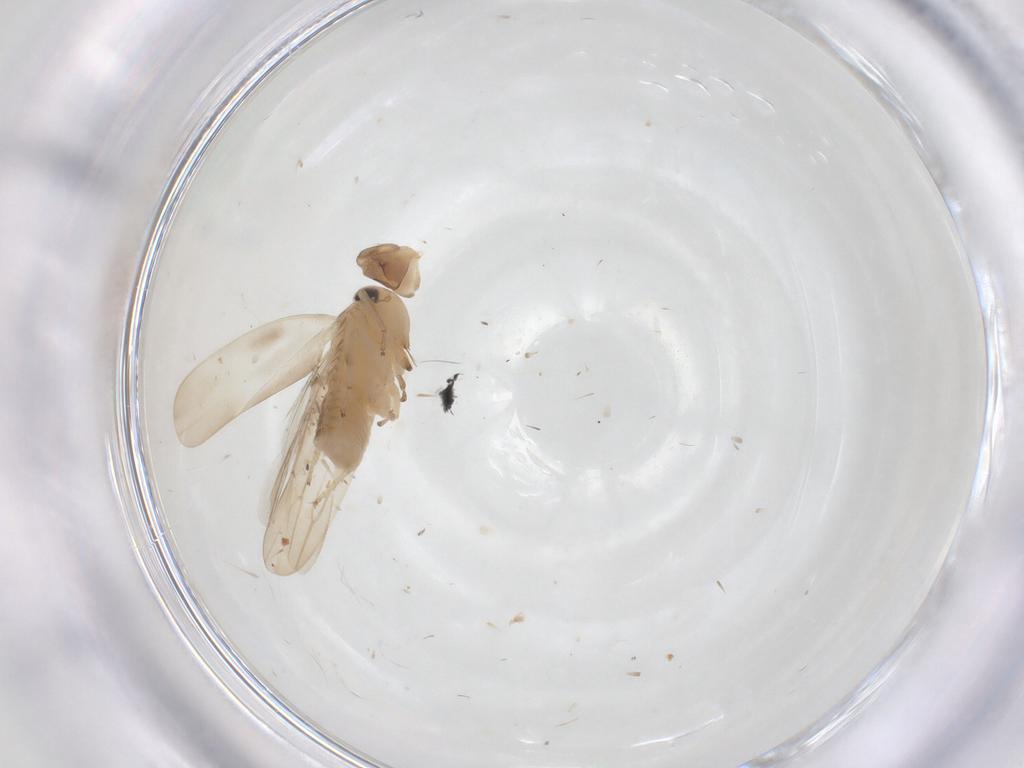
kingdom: Animalia
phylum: Arthropoda
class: Insecta
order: Hemiptera
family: Cicadellidae
